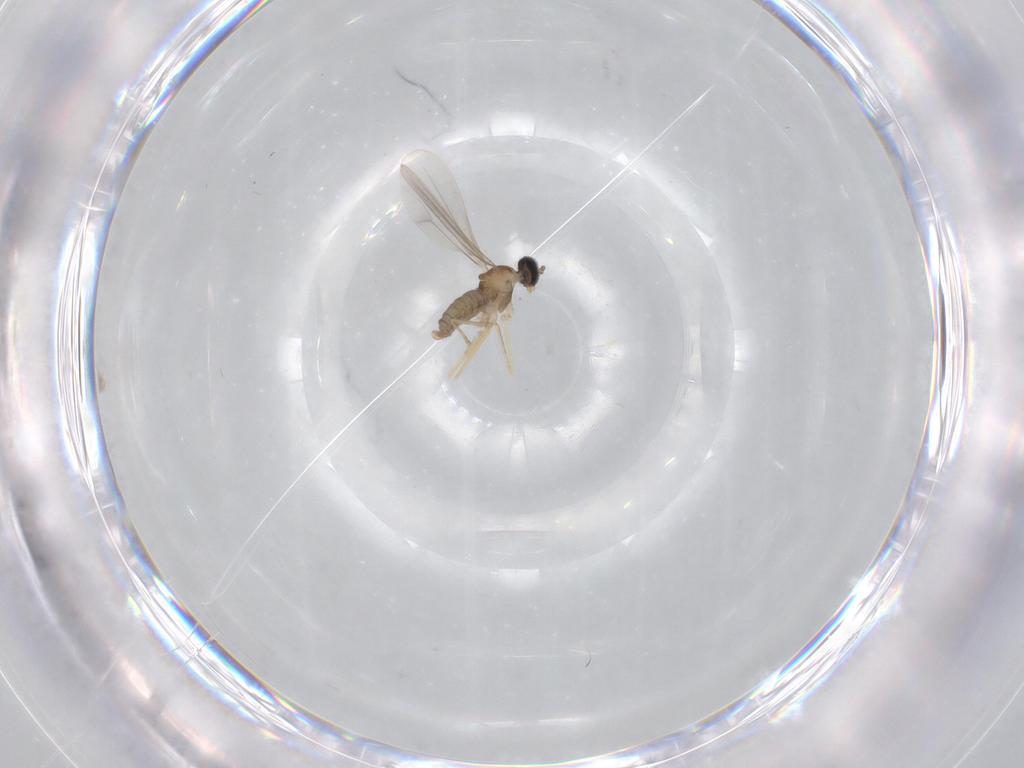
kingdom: Animalia
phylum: Arthropoda
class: Insecta
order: Diptera
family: Cecidomyiidae
